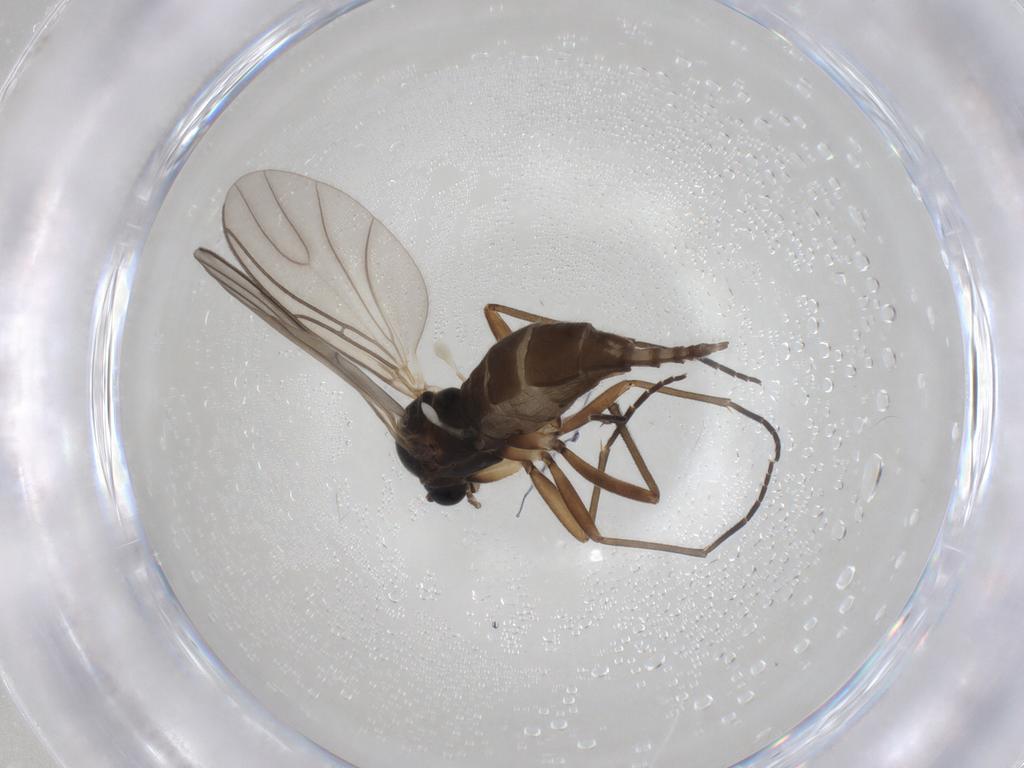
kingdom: Animalia
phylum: Arthropoda
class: Insecta
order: Diptera
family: Sciaridae
